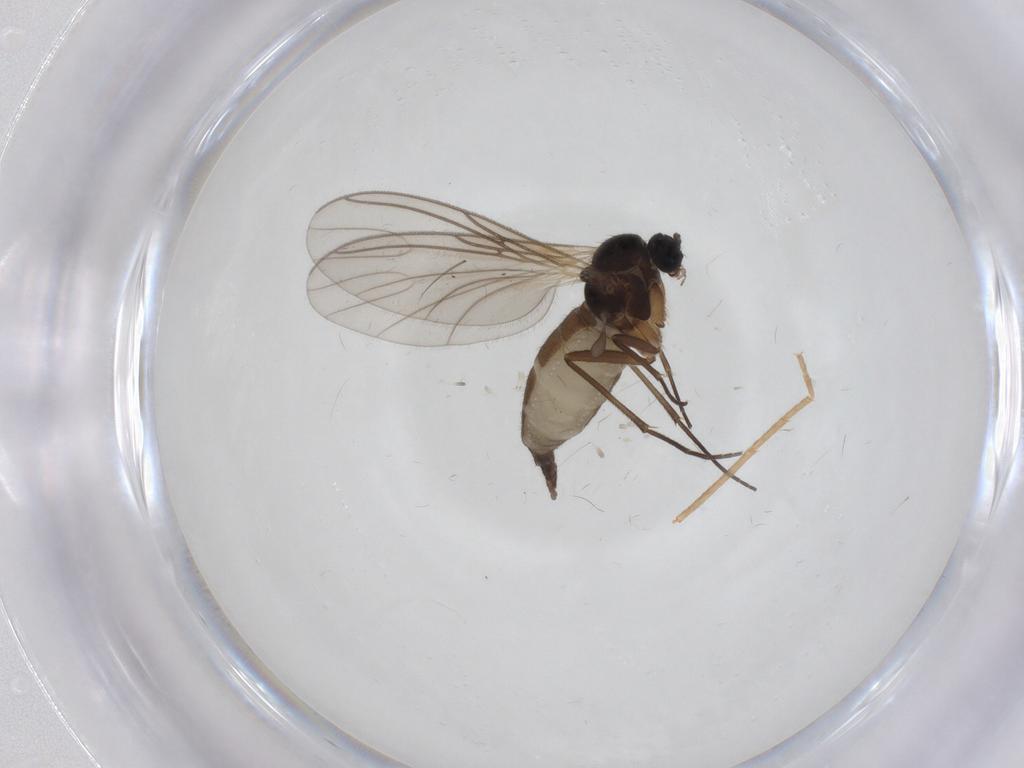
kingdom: Animalia
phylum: Arthropoda
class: Insecta
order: Diptera
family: Sciaridae
